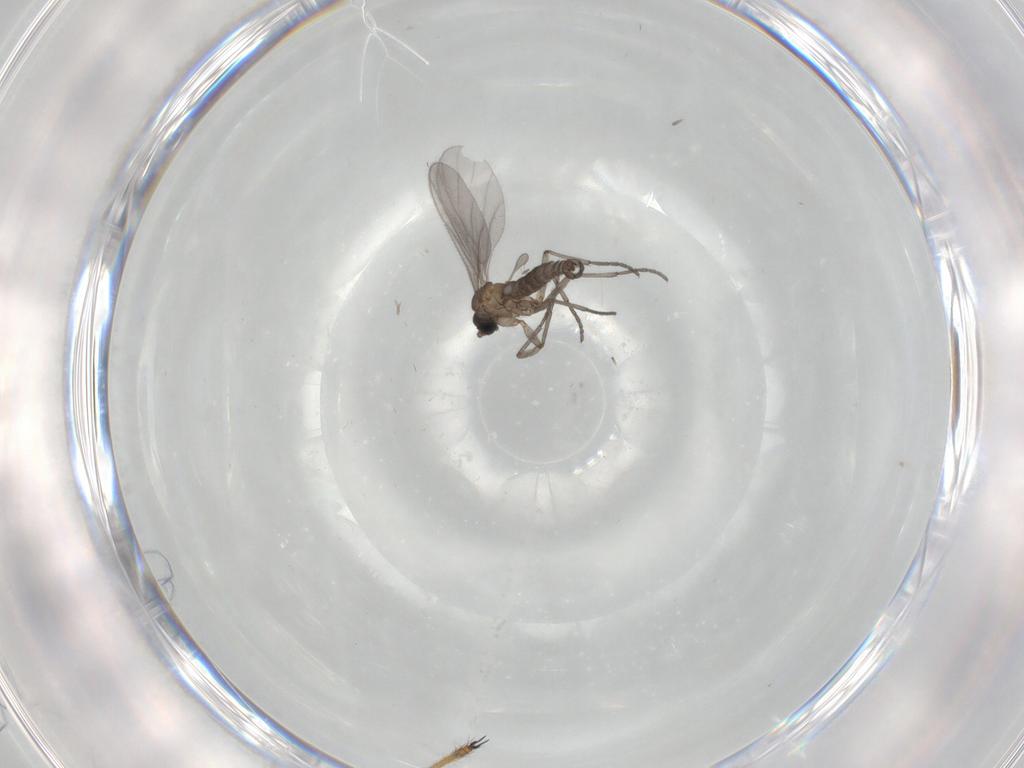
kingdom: Animalia
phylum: Arthropoda
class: Insecta
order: Diptera
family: Sciaridae
